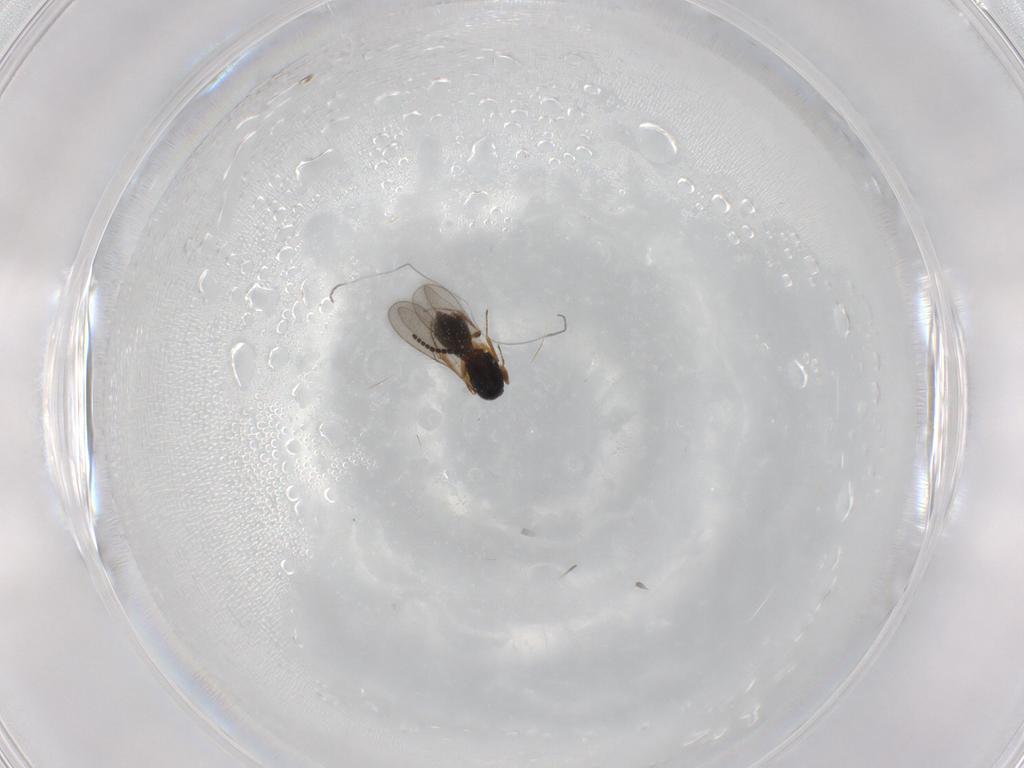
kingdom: Animalia
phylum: Arthropoda
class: Insecta
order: Hymenoptera
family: Scelionidae
